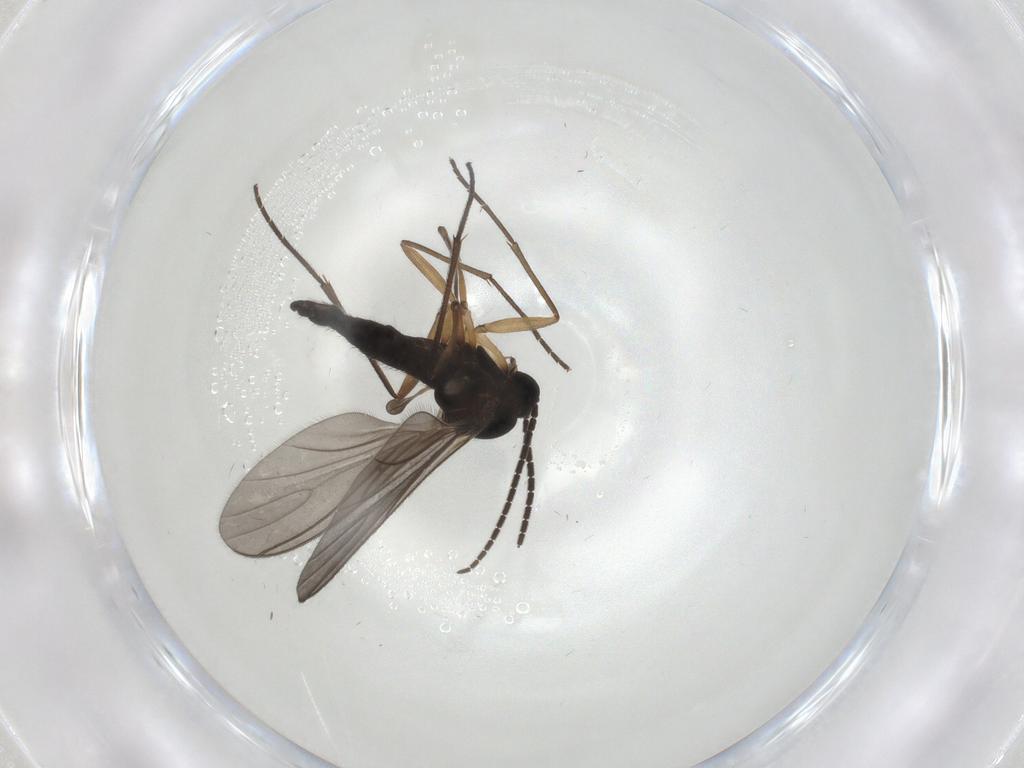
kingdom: Animalia
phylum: Arthropoda
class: Insecta
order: Diptera
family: Sciaridae
